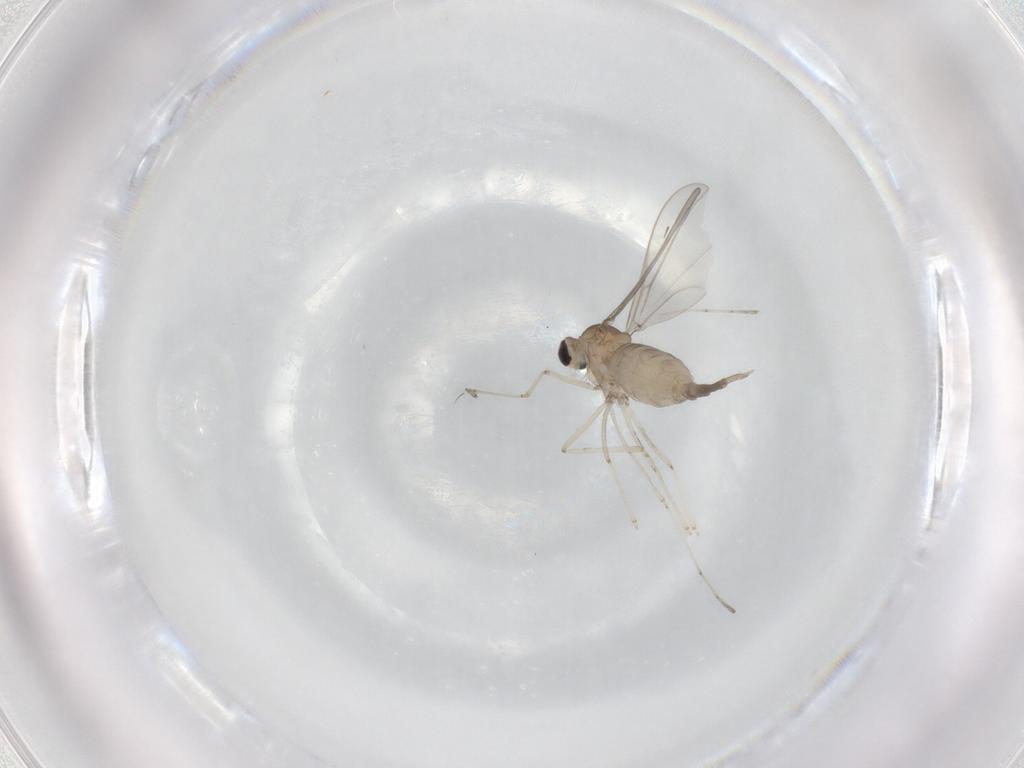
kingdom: Animalia
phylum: Arthropoda
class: Insecta
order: Diptera
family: Cecidomyiidae
